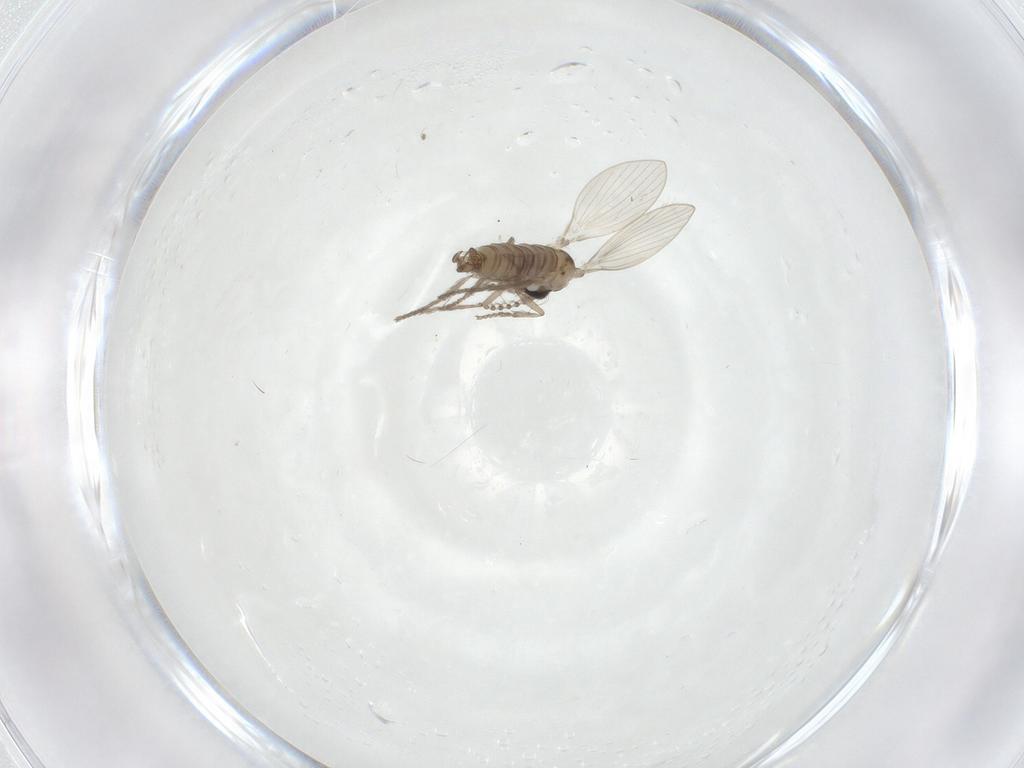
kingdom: Animalia
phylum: Arthropoda
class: Insecta
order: Diptera
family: Psychodidae
